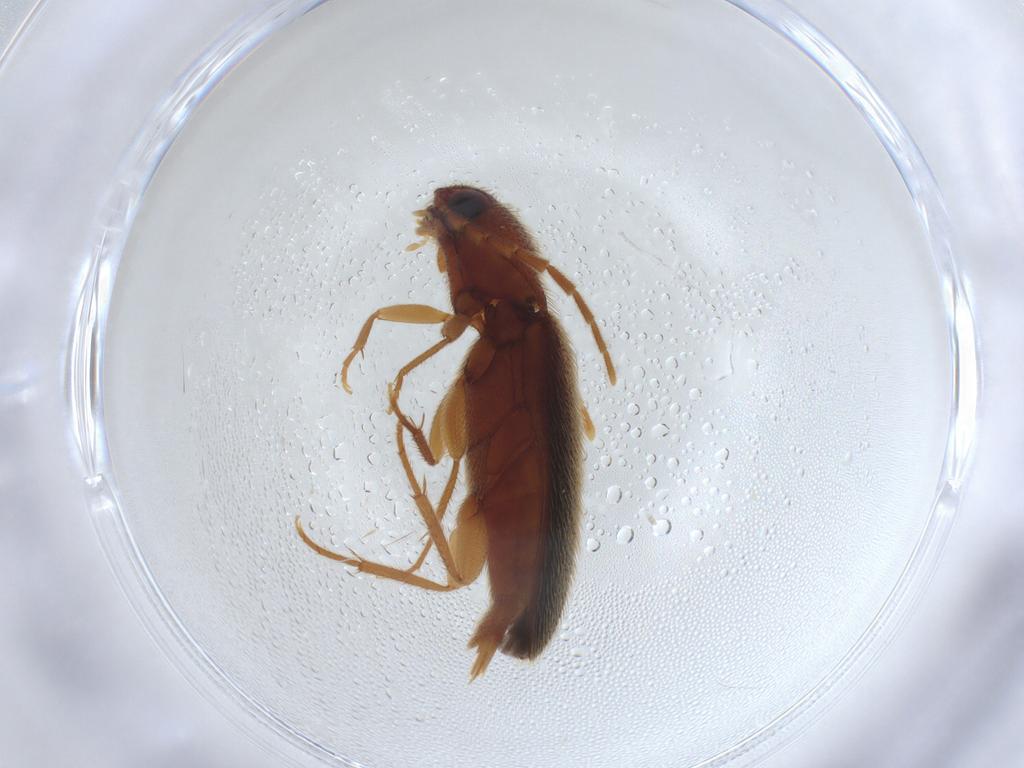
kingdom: Animalia
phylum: Arthropoda
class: Insecta
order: Coleoptera
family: Elateridae
